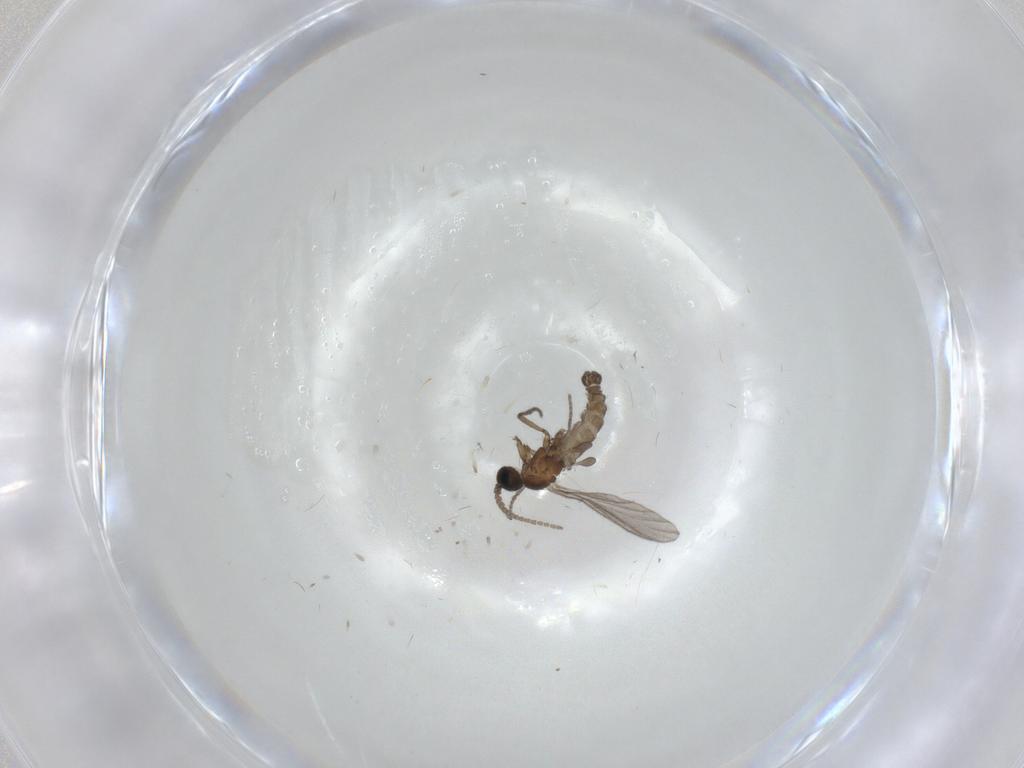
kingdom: Animalia
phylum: Arthropoda
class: Insecta
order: Diptera
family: Sciaridae
